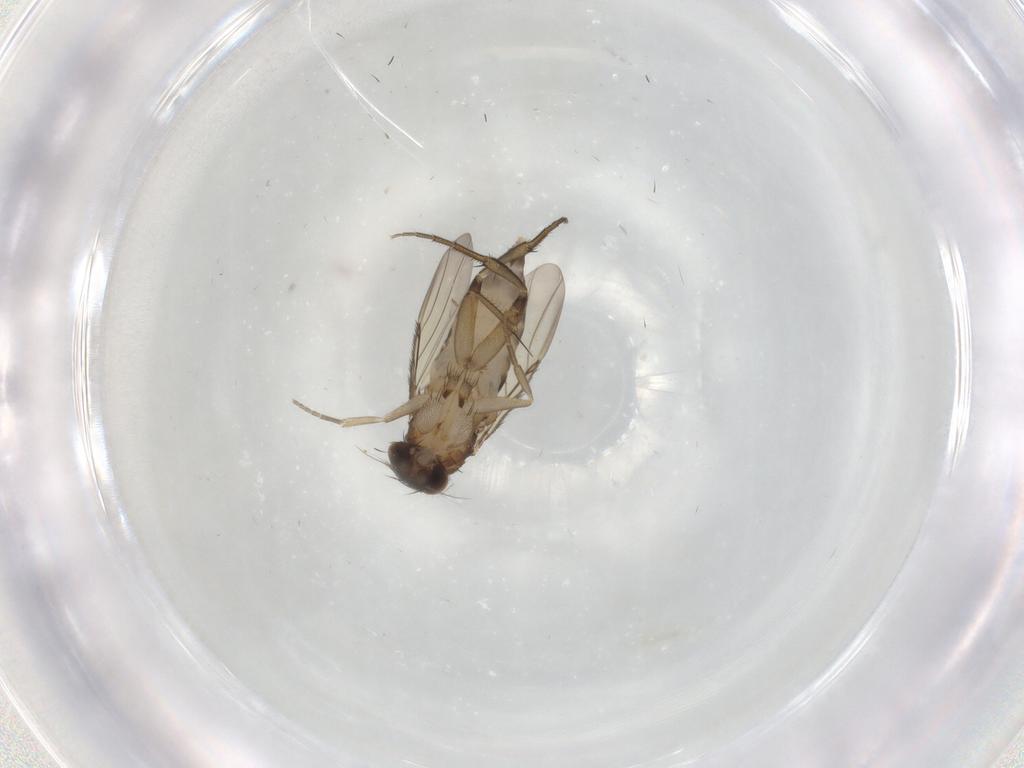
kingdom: Animalia
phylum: Arthropoda
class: Insecta
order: Diptera
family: Phoridae
